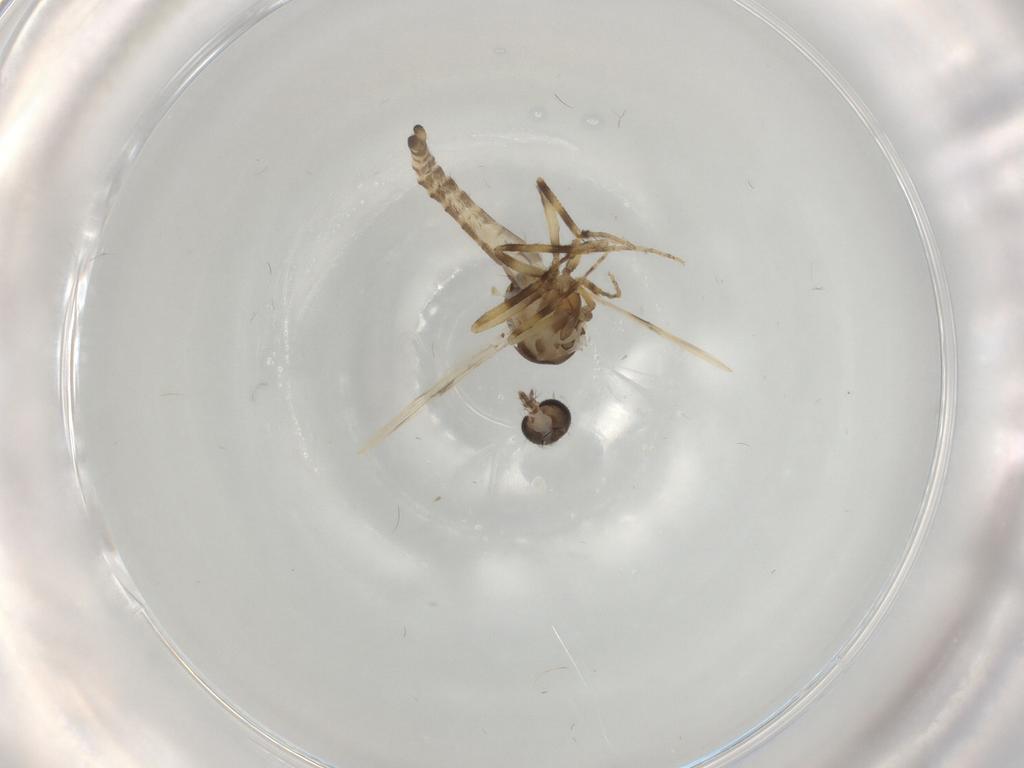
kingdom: Animalia
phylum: Arthropoda
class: Insecta
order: Diptera
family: Ceratopogonidae
